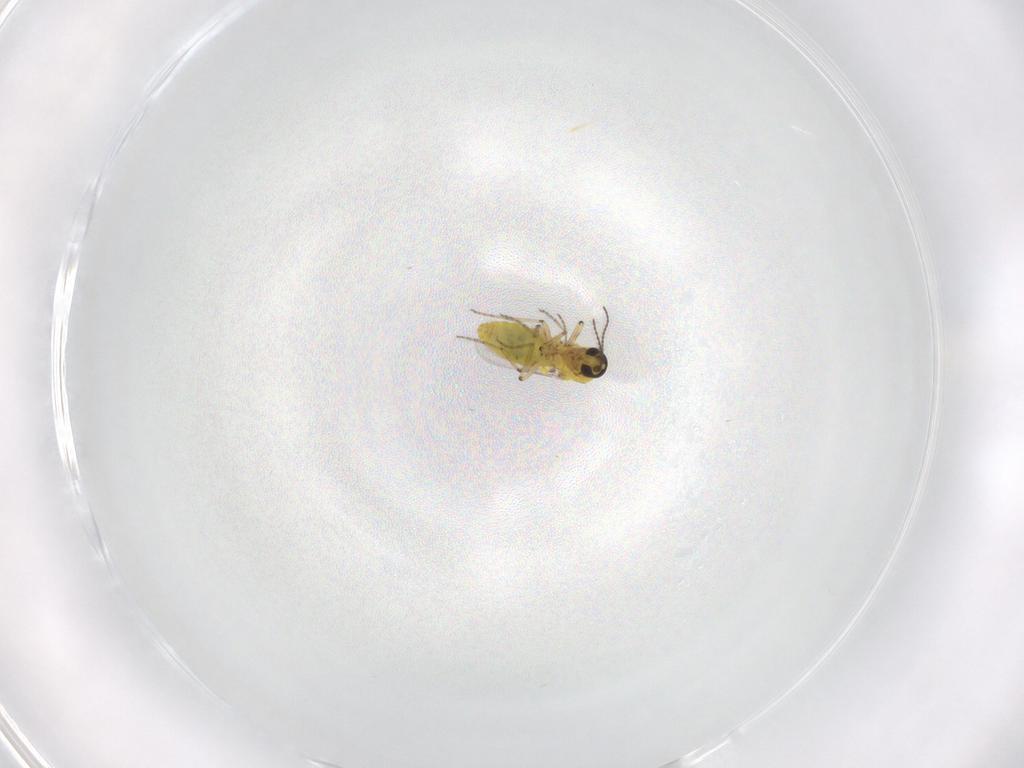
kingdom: Animalia
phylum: Arthropoda
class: Insecta
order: Diptera
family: Ceratopogonidae
